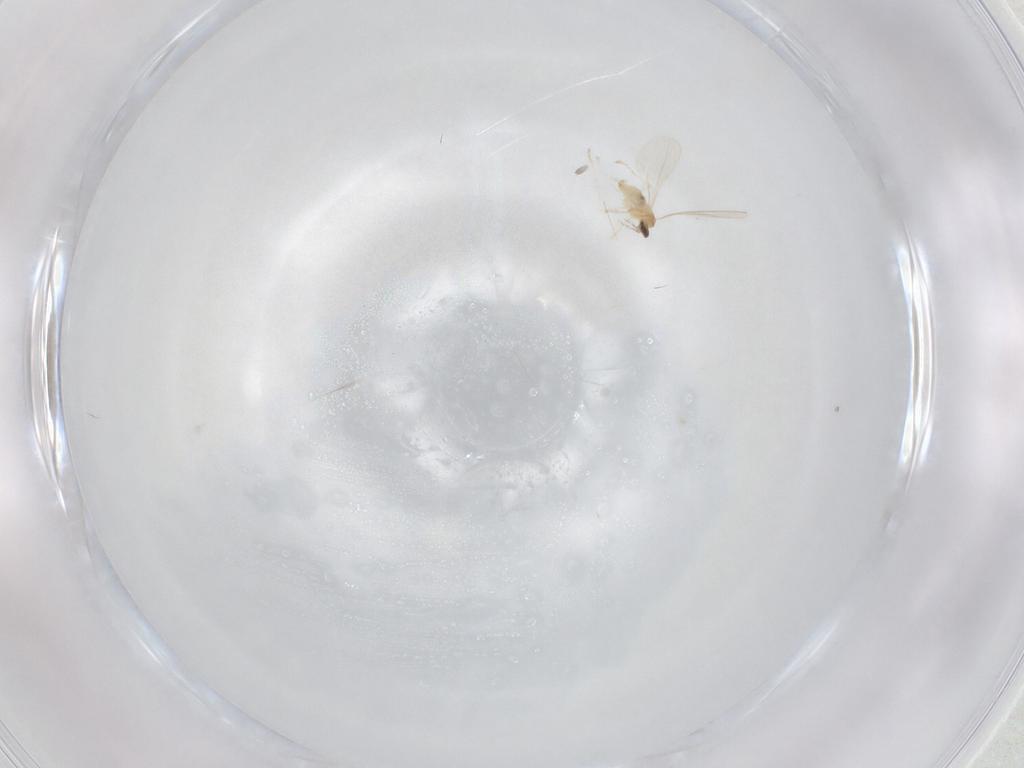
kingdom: Animalia
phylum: Arthropoda
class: Insecta
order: Diptera
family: Cecidomyiidae
